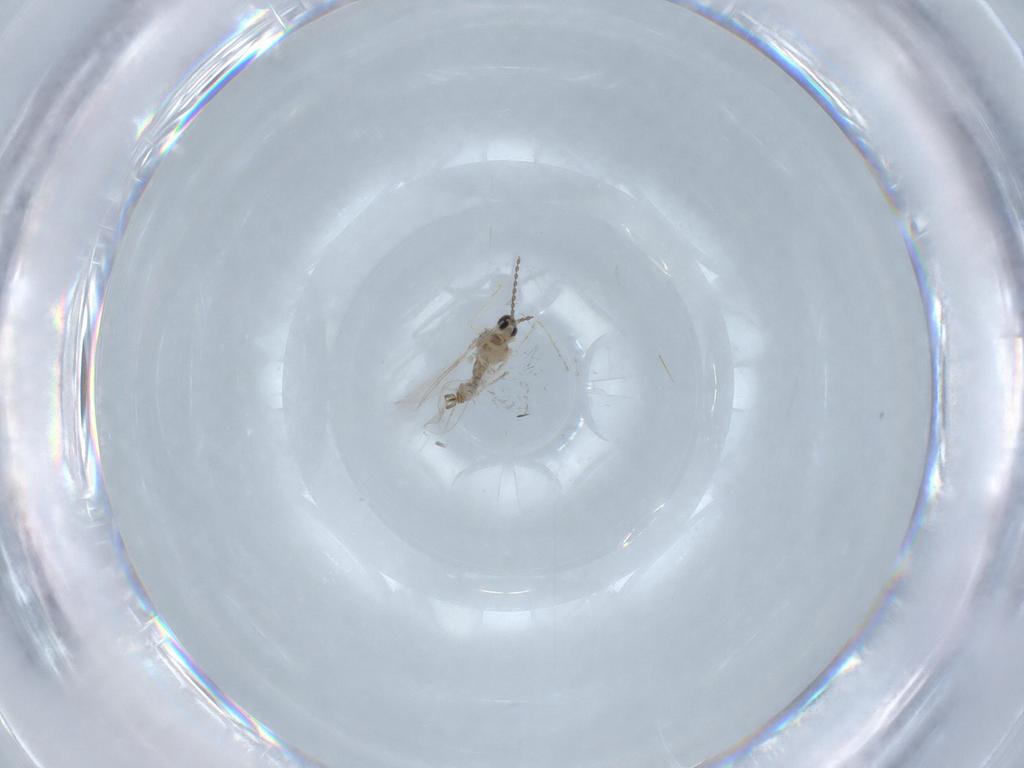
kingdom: Animalia
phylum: Arthropoda
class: Insecta
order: Diptera
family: Cecidomyiidae
